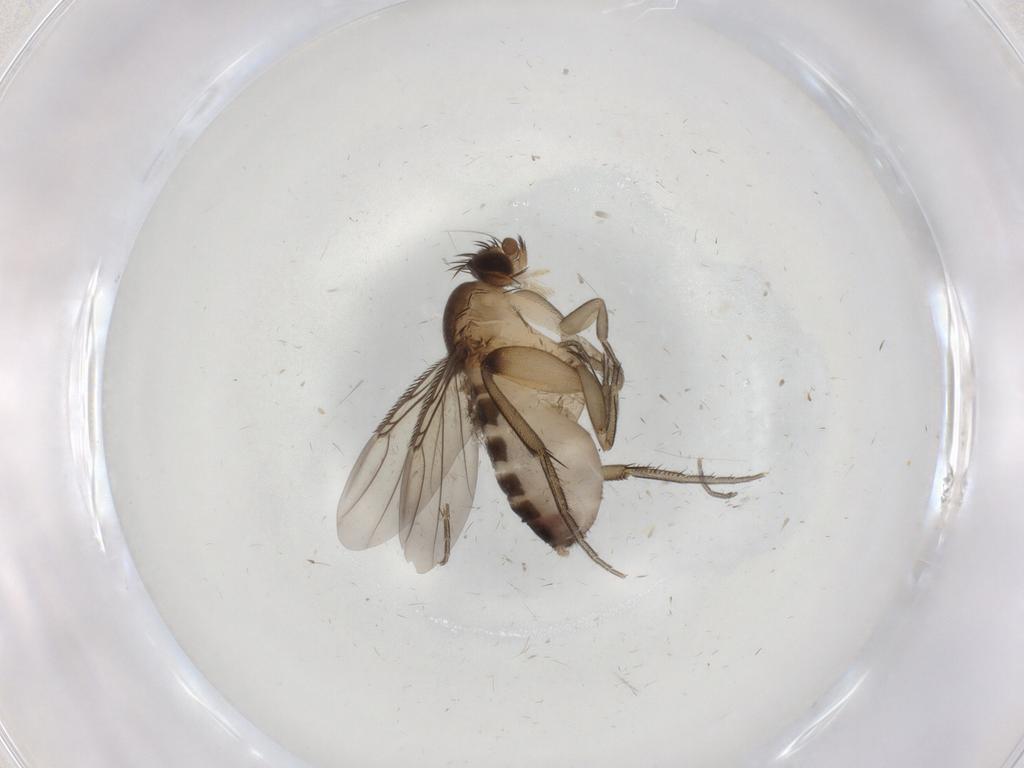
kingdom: Animalia
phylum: Arthropoda
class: Insecta
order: Diptera
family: Phoridae
